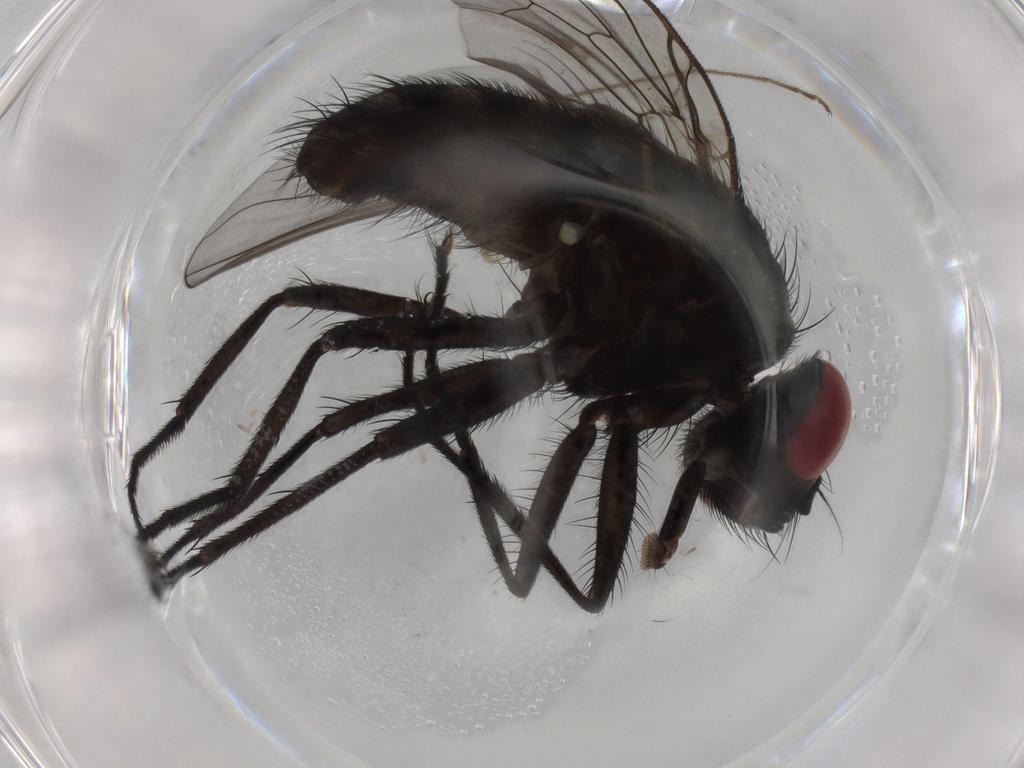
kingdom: Animalia
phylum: Arthropoda
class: Insecta
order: Diptera
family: Muscidae
